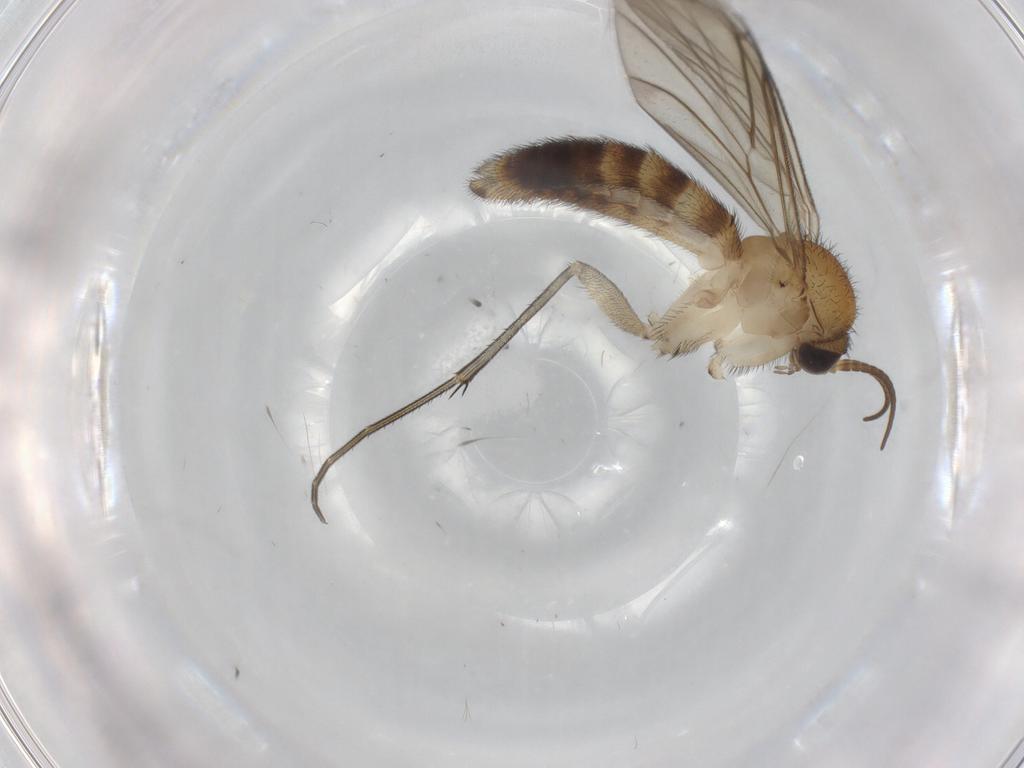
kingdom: Animalia
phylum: Arthropoda
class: Insecta
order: Diptera
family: Keroplatidae
